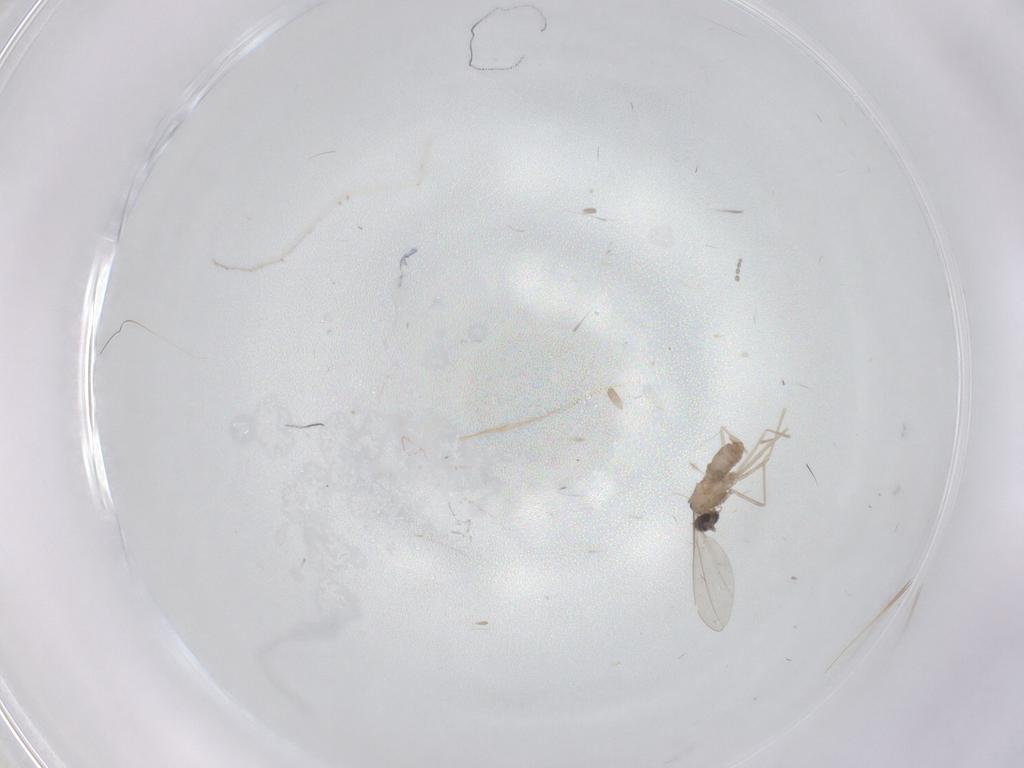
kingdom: Animalia
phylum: Arthropoda
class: Insecta
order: Diptera
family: Cecidomyiidae
